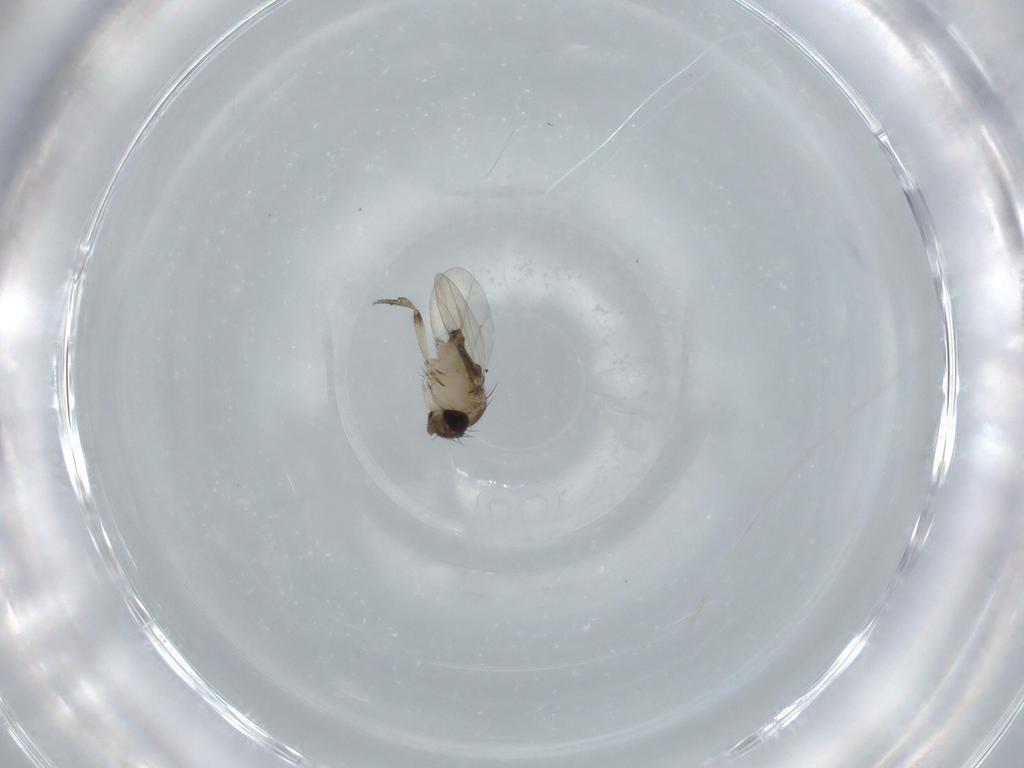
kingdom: Animalia
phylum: Arthropoda
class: Insecta
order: Diptera
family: Phoridae
